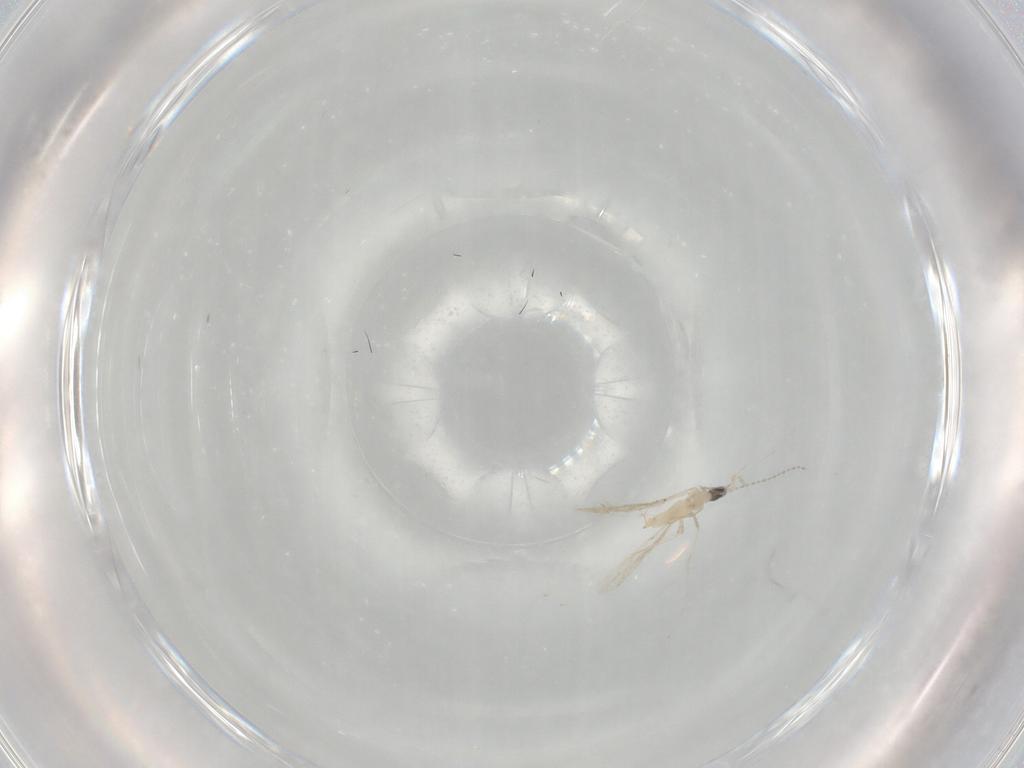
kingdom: Animalia
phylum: Arthropoda
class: Insecta
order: Diptera
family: Cecidomyiidae
